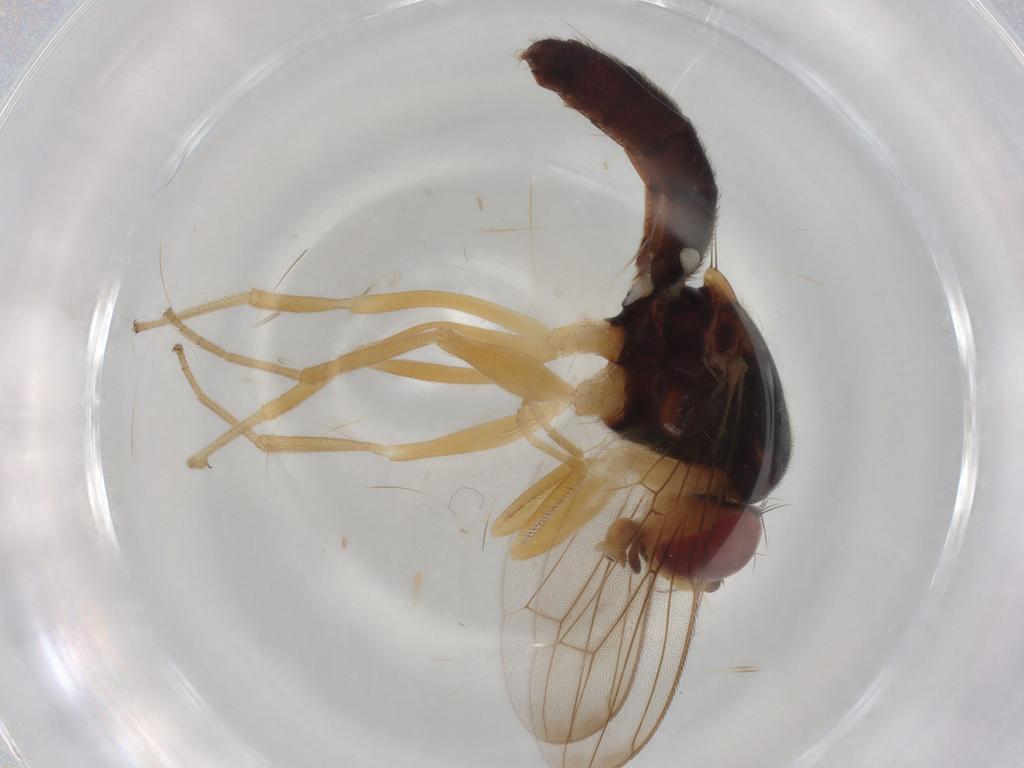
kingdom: Animalia
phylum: Arthropoda
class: Insecta
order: Diptera
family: Psilidae
